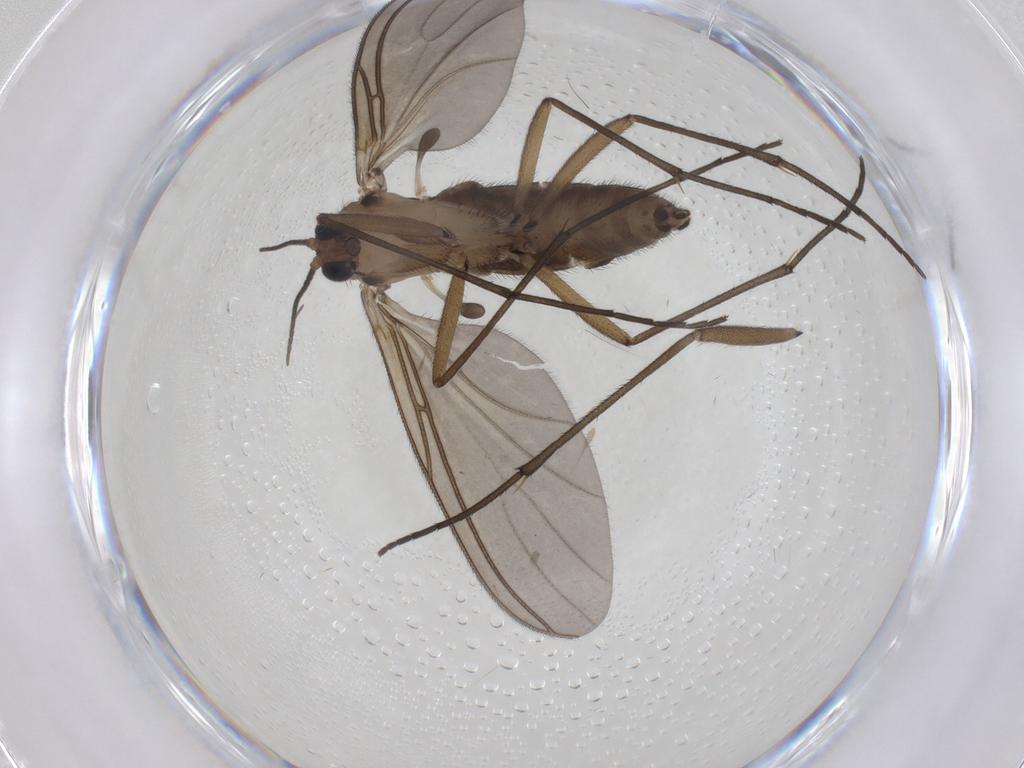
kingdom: Animalia
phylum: Arthropoda
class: Insecta
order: Diptera
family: Sciaridae
